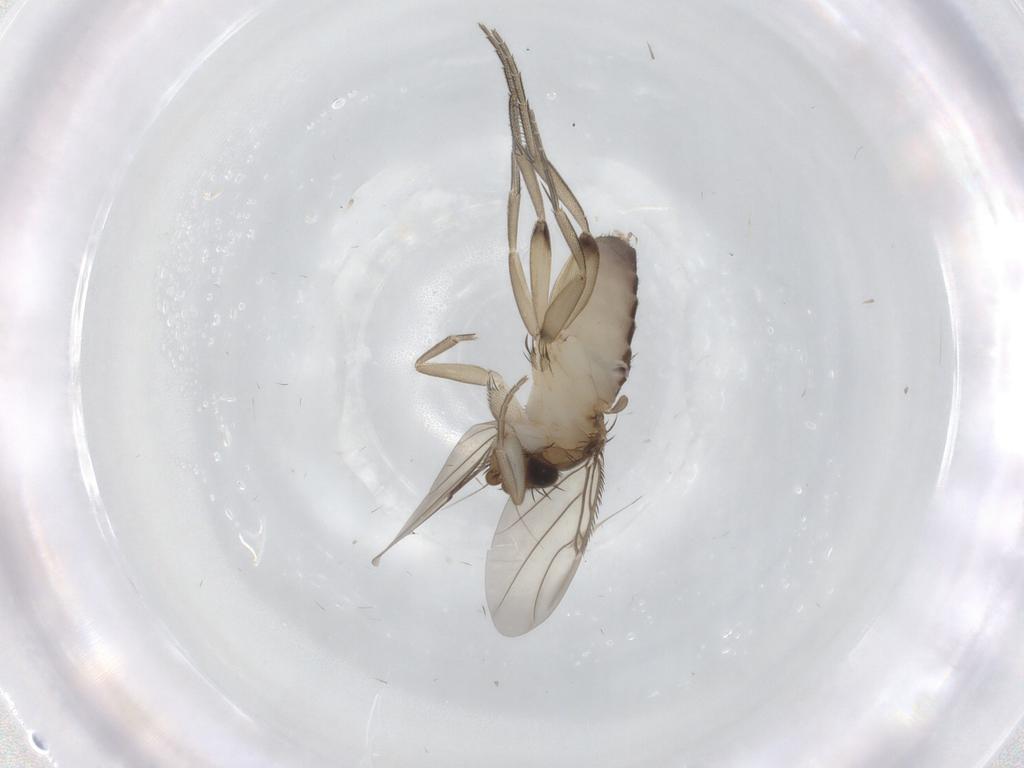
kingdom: Animalia
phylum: Arthropoda
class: Insecta
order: Diptera
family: Phoridae
